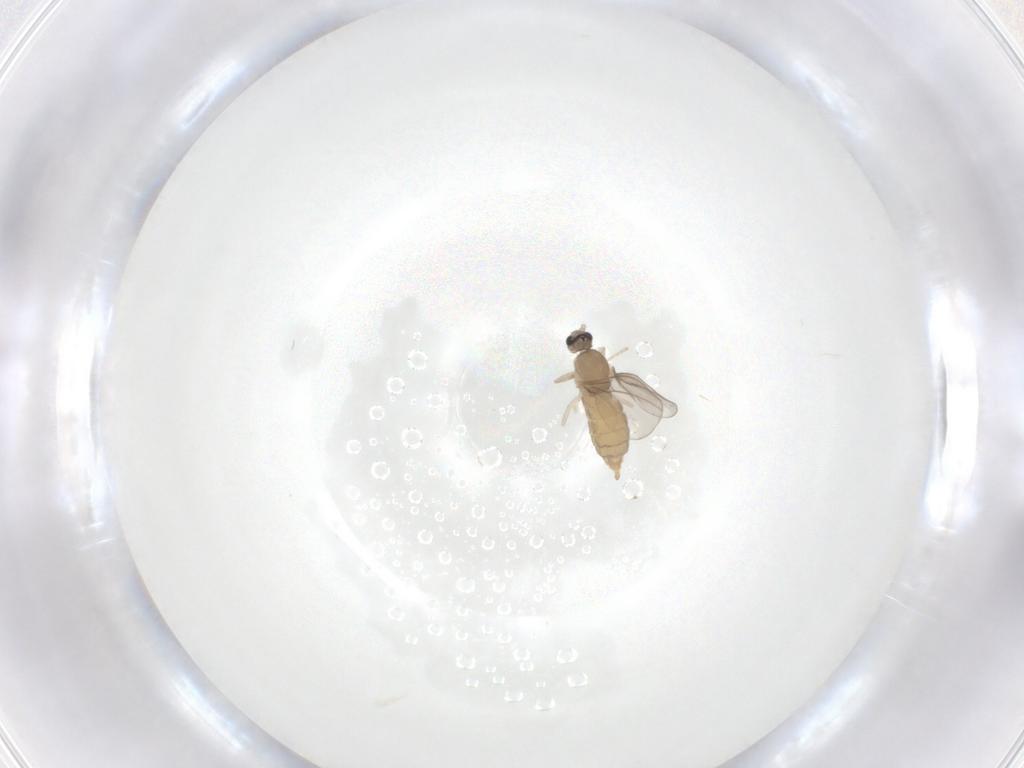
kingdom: Animalia
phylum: Arthropoda
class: Insecta
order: Diptera
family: Cecidomyiidae
